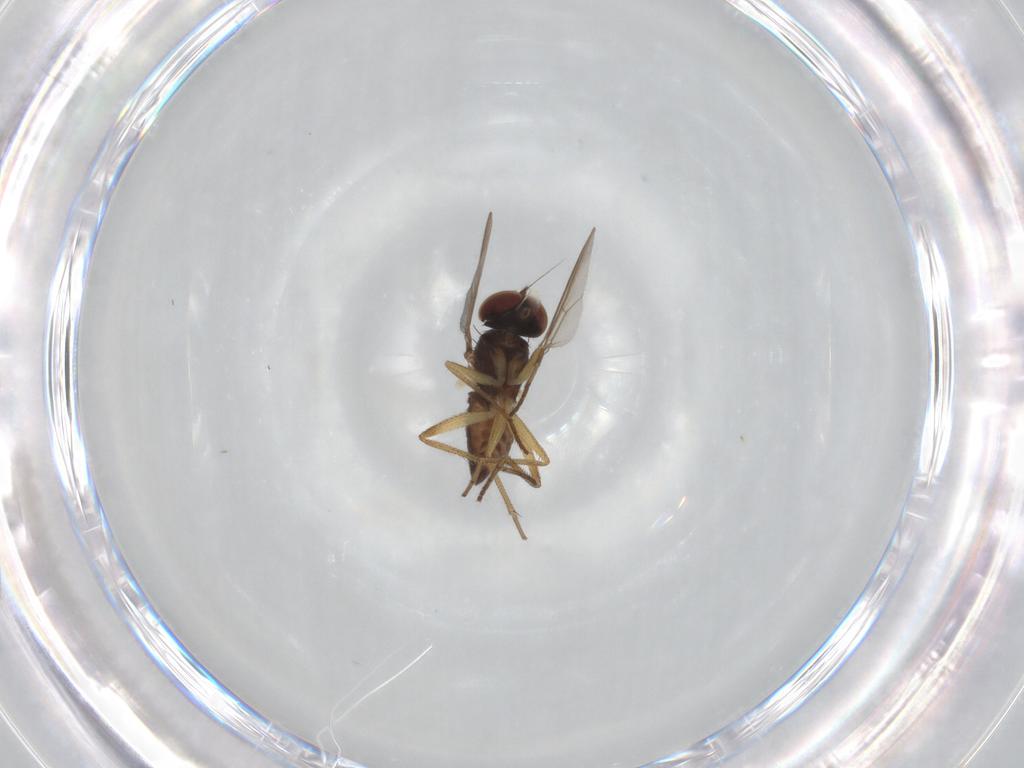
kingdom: Animalia
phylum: Arthropoda
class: Insecta
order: Diptera
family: Dolichopodidae
